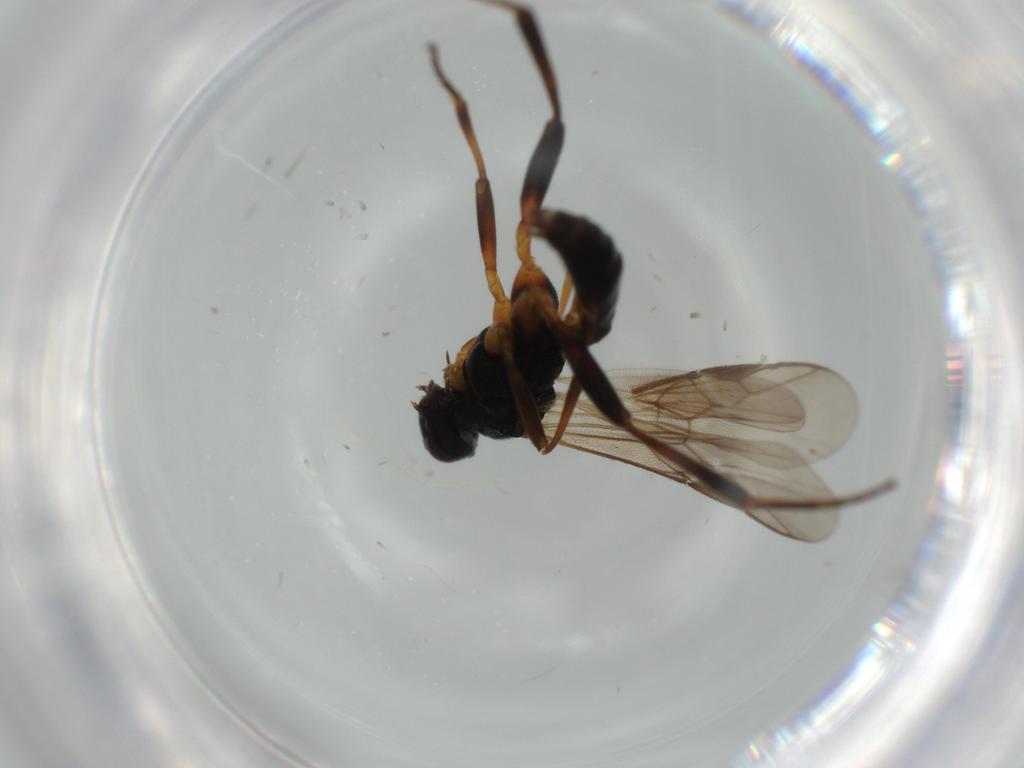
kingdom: Animalia
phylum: Arthropoda
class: Insecta
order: Hymenoptera
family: Braconidae
